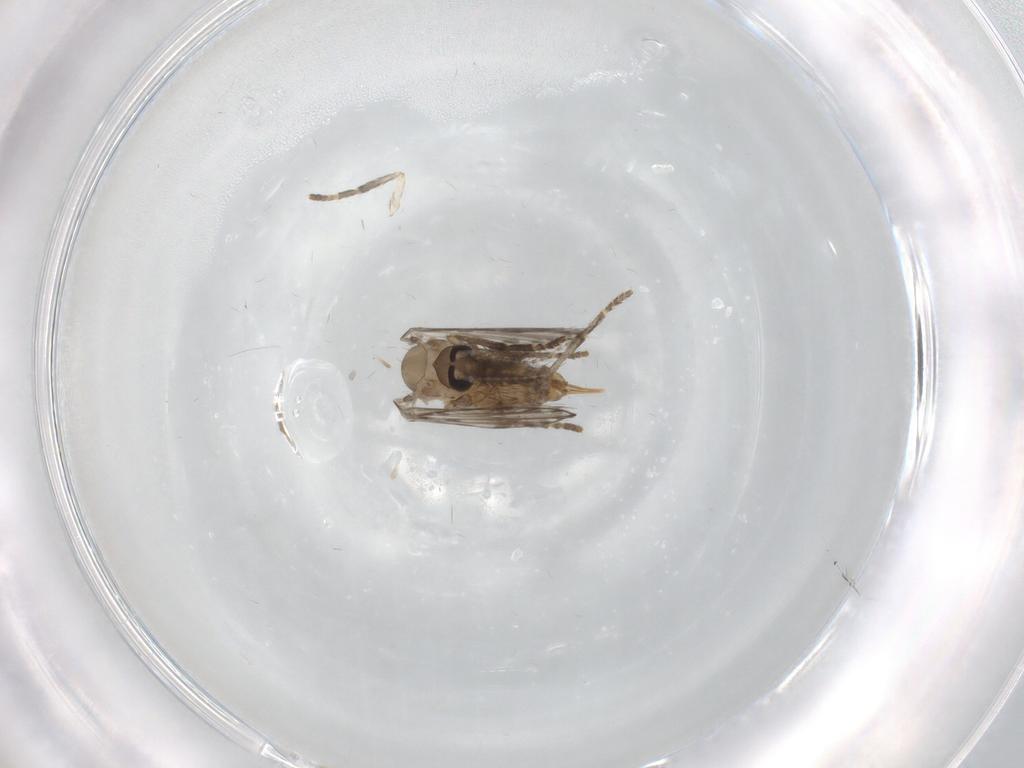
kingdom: Animalia
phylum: Arthropoda
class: Insecta
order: Diptera
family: Psychodidae
